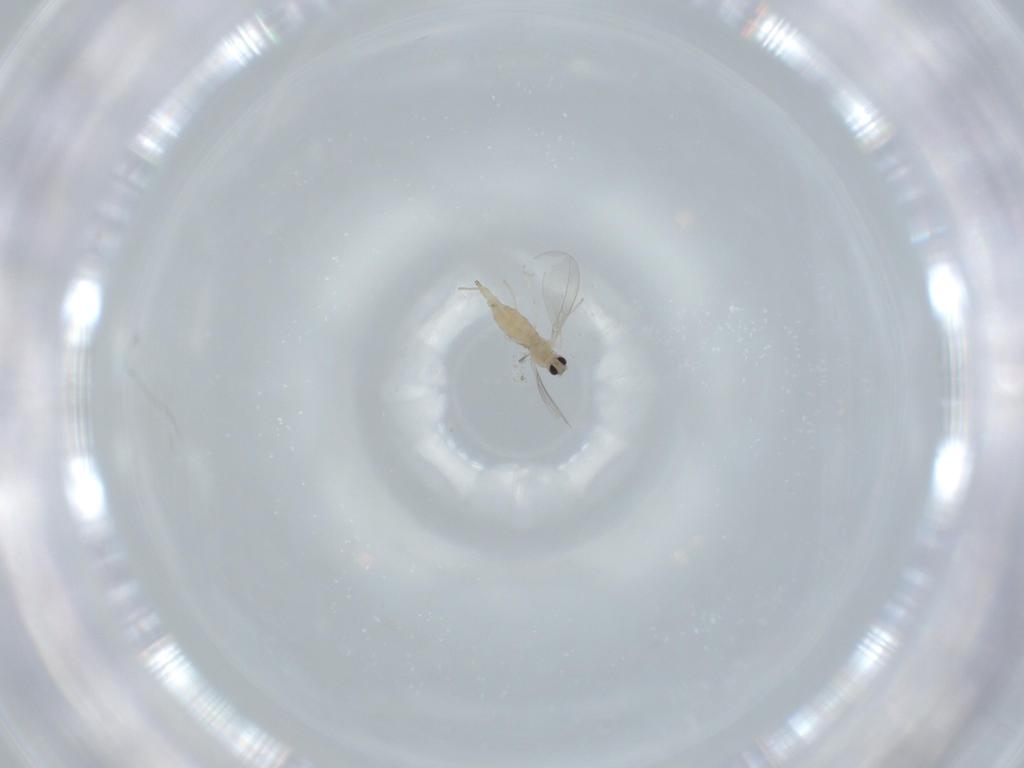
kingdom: Animalia
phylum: Arthropoda
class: Insecta
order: Diptera
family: Cecidomyiidae
